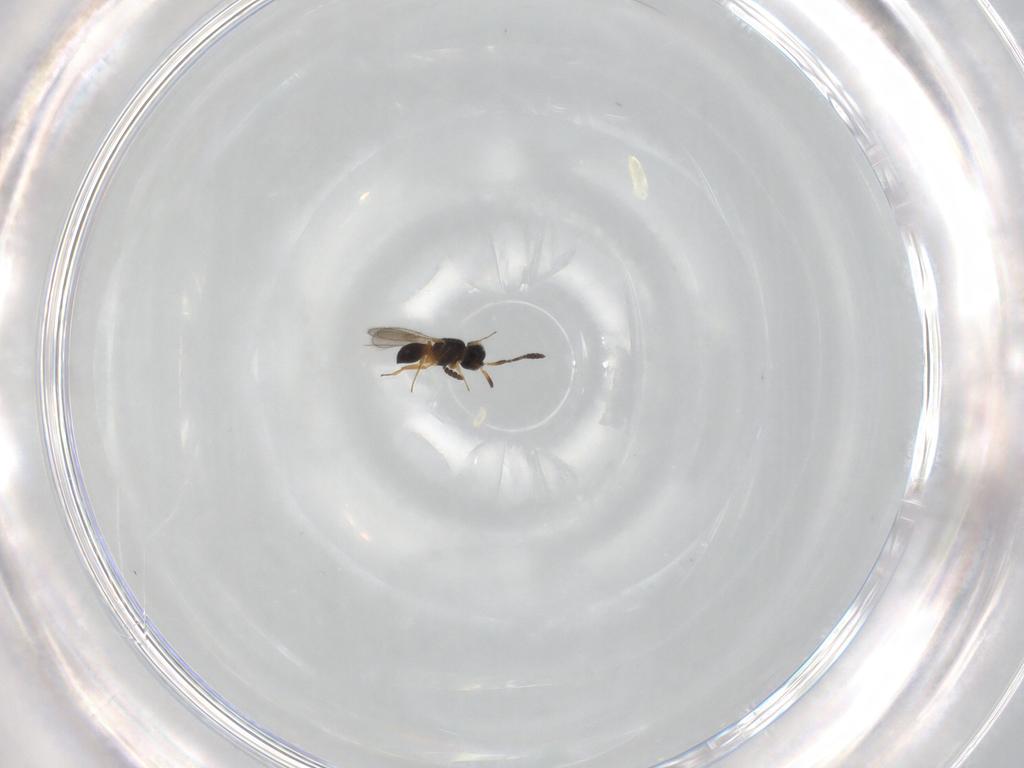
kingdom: Animalia
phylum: Arthropoda
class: Insecta
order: Hymenoptera
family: Scelionidae
